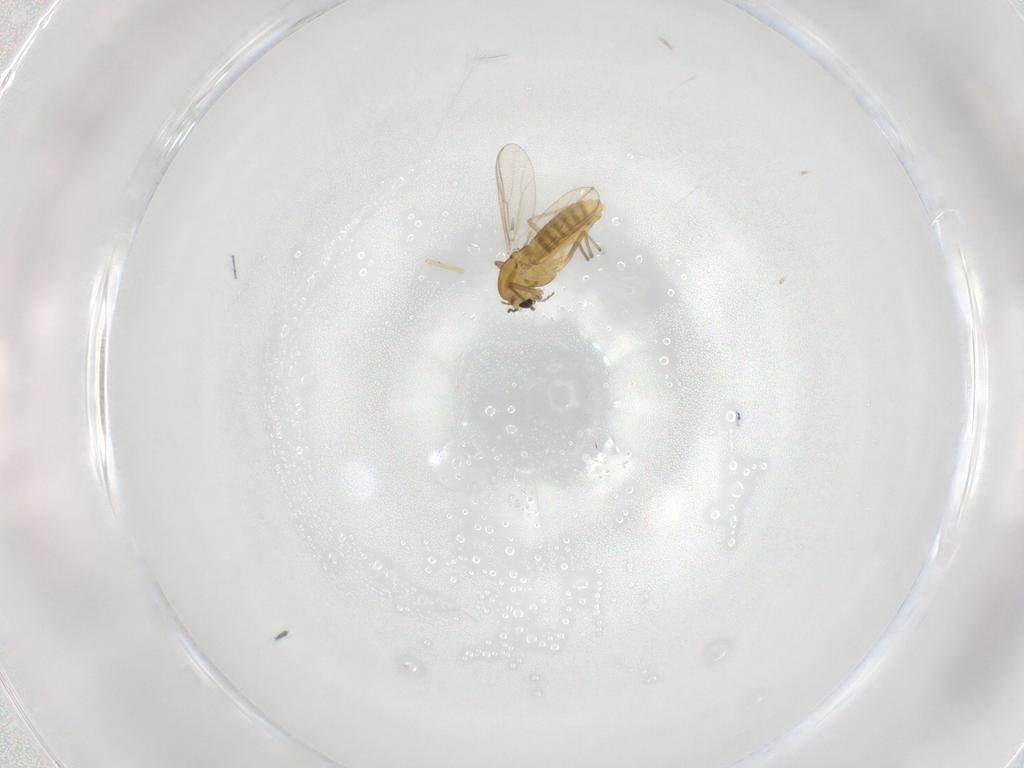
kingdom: Animalia
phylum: Arthropoda
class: Insecta
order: Diptera
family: Chironomidae
